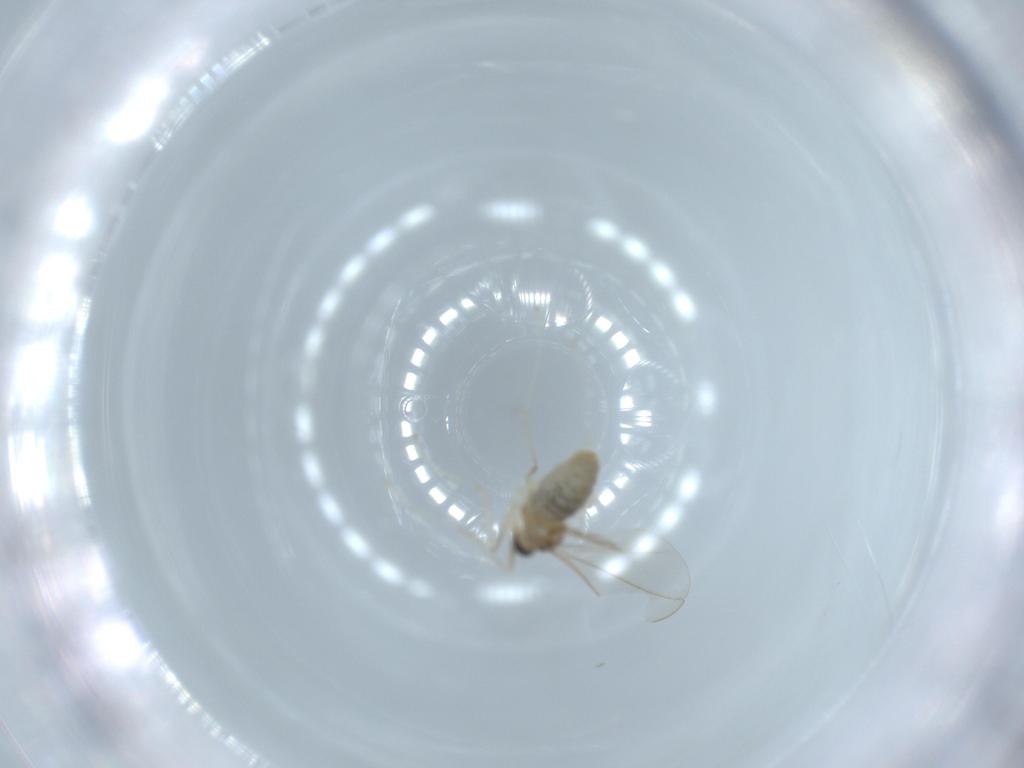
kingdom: Animalia
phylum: Arthropoda
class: Insecta
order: Diptera
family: Cecidomyiidae
